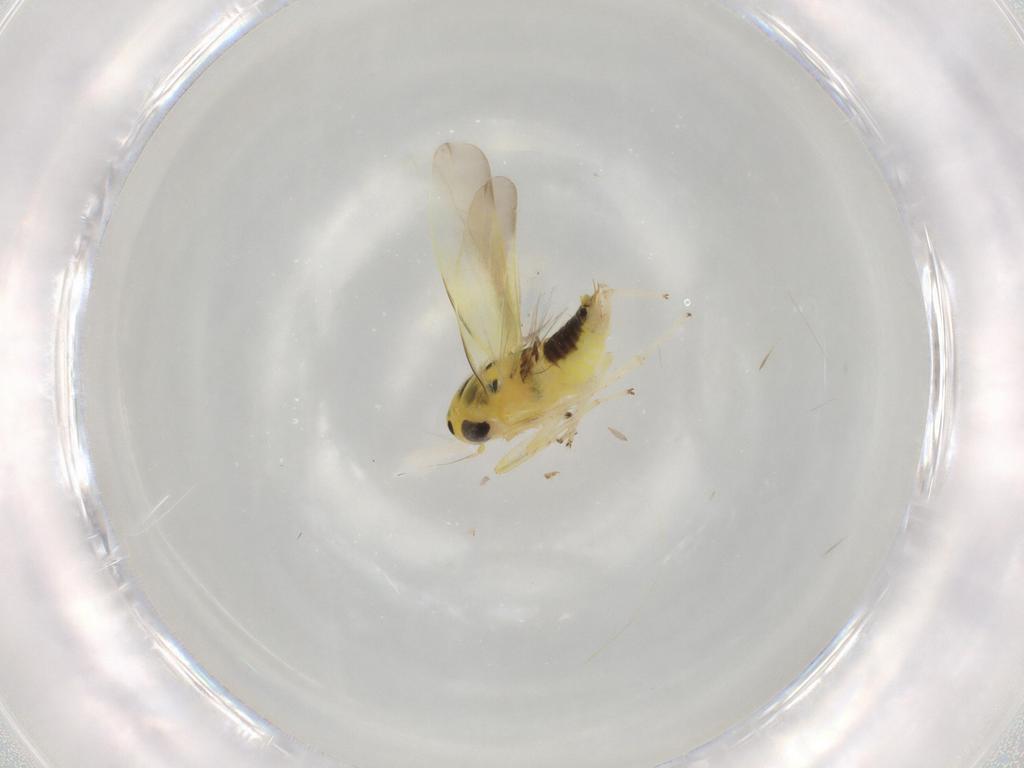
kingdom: Animalia
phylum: Arthropoda
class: Insecta
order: Hemiptera
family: Cicadellidae
